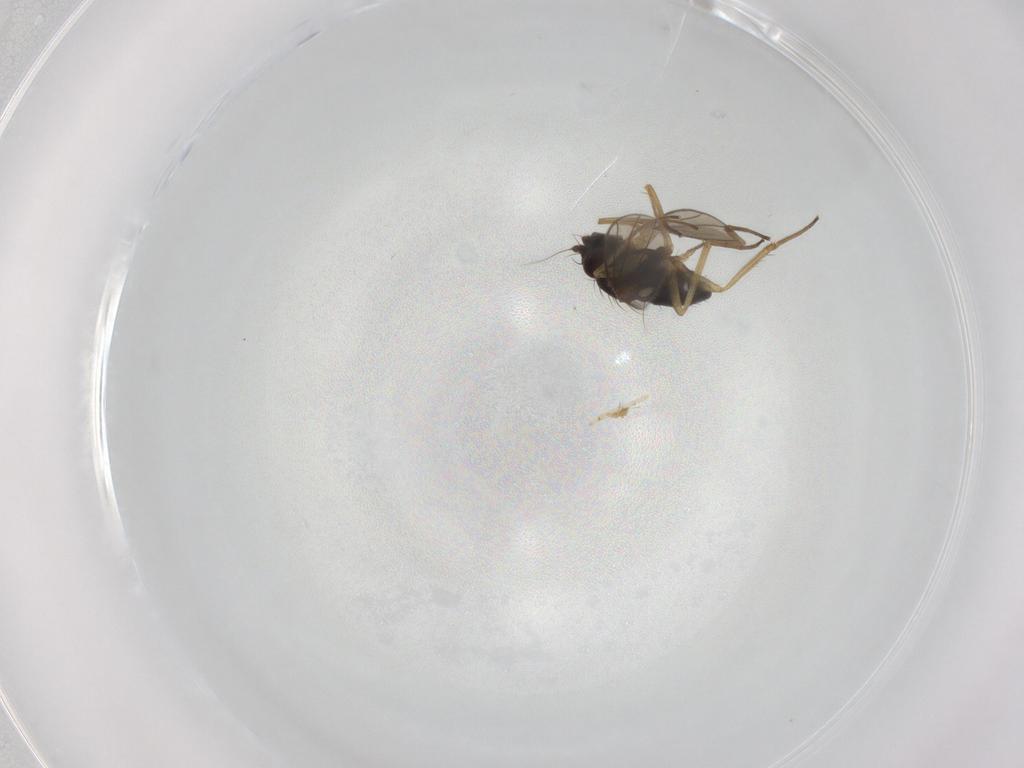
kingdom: Animalia
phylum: Arthropoda
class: Insecta
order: Diptera
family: Dolichopodidae
